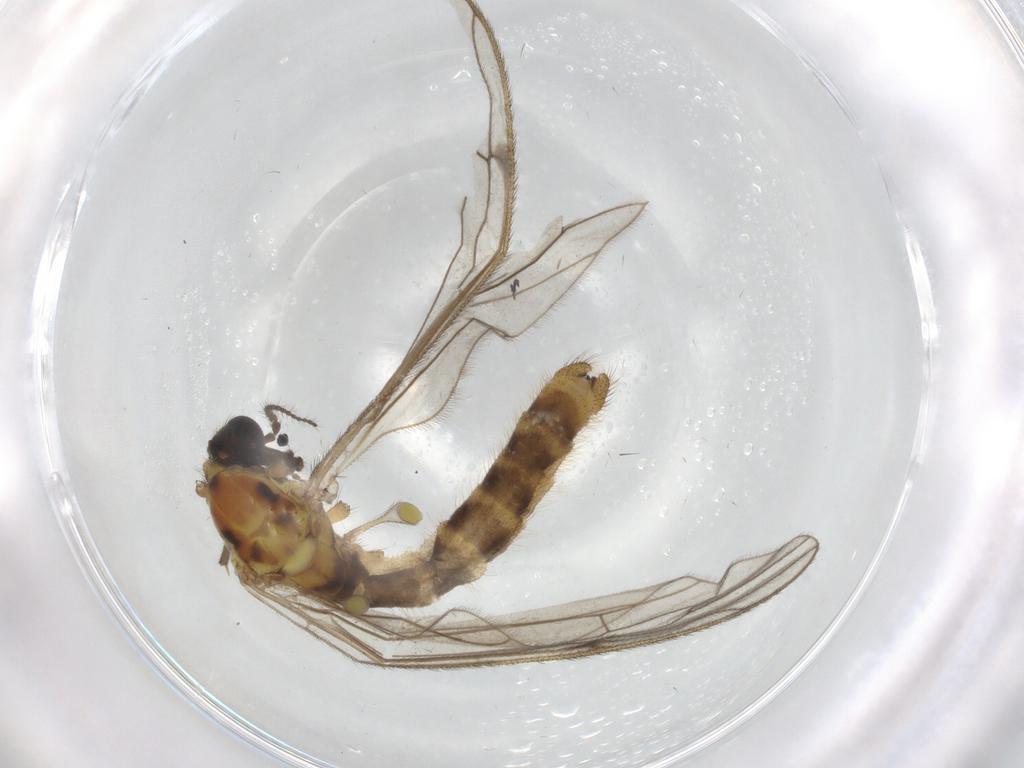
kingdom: Animalia
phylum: Arthropoda
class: Insecta
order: Diptera
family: Limoniidae
